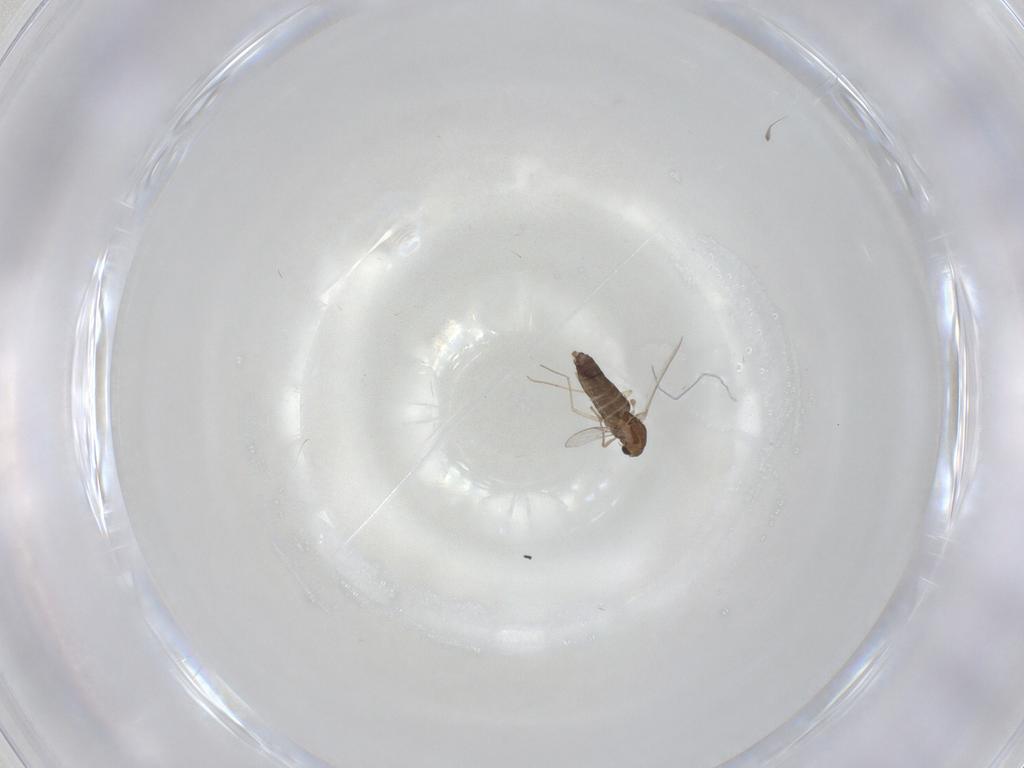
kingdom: Animalia
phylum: Arthropoda
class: Insecta
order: Diptera
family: Chironomidae
